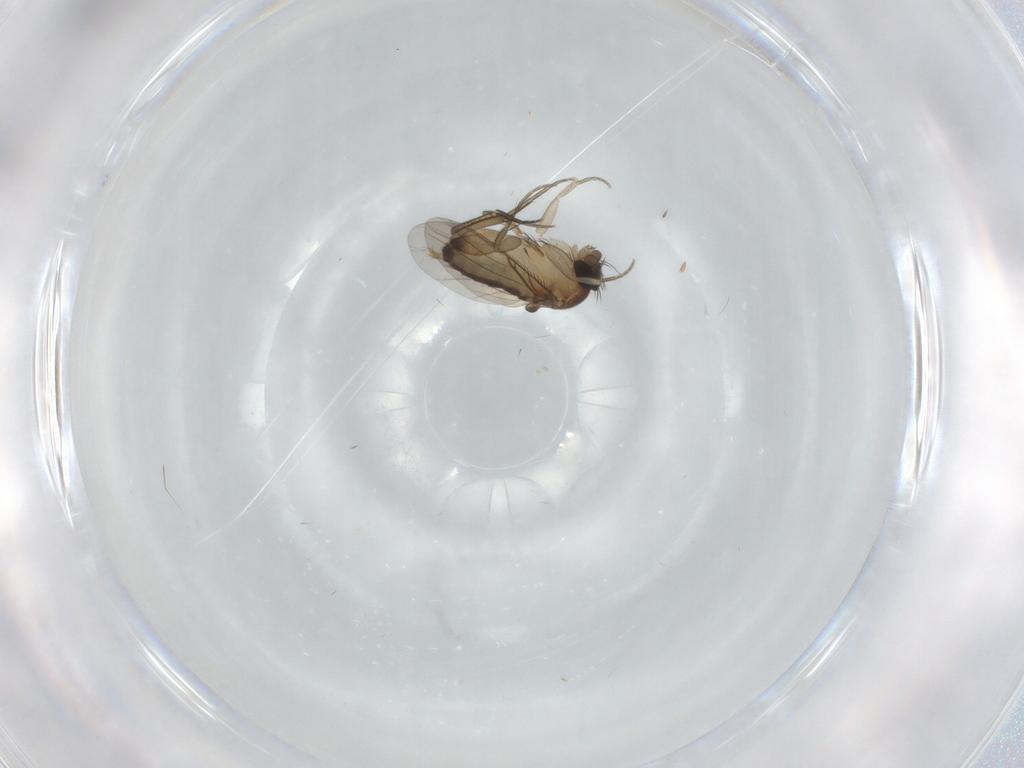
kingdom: Animalia
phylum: Arthropoda
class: Insecta
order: Diptera
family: Phoridae
